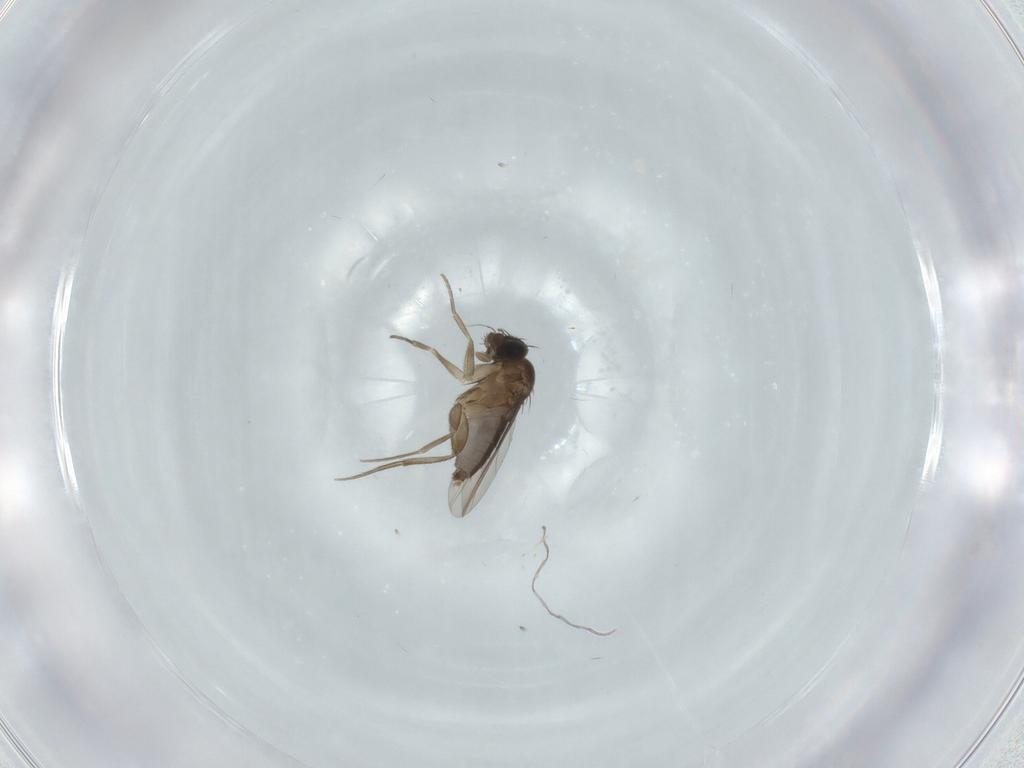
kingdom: Animalia
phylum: Arthropoda
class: Insecta
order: Diptera
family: Phoridae
